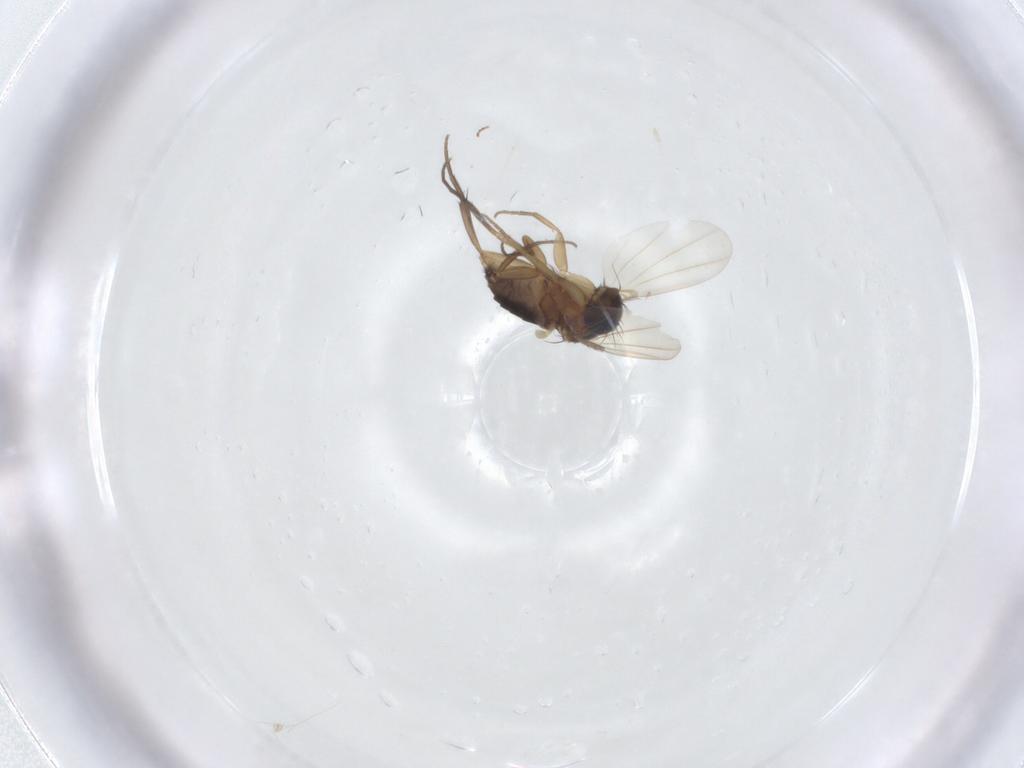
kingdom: Animalia
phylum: Arthropoda
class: Insecta
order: Diptera
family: Phoridae
